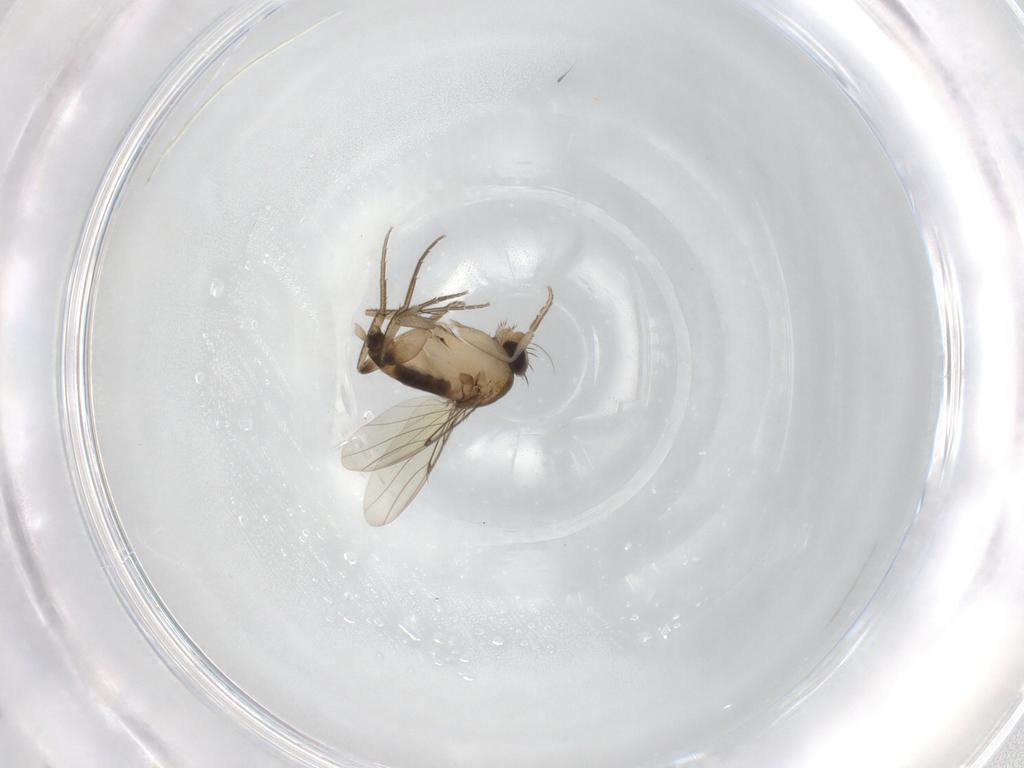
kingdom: Animalia
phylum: Arthropoda
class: Insecta
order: Diptera
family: Phoridae
